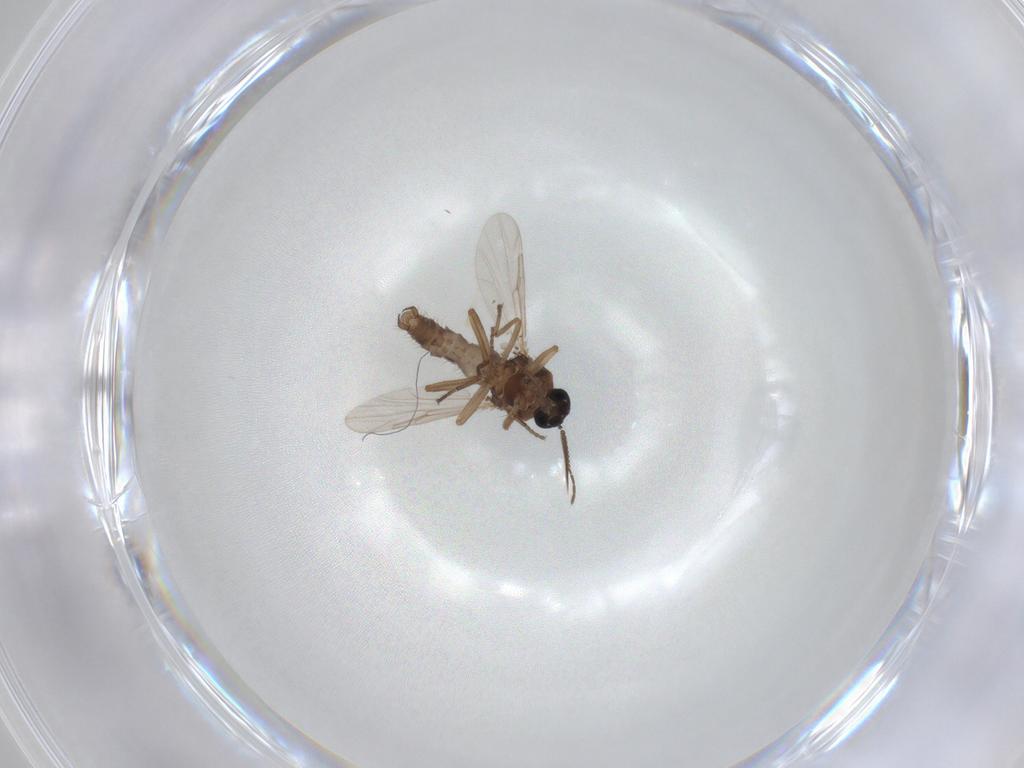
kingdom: Animalia
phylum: Arthropoda
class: Insecta
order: Diptera
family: Ceratopogonidae
